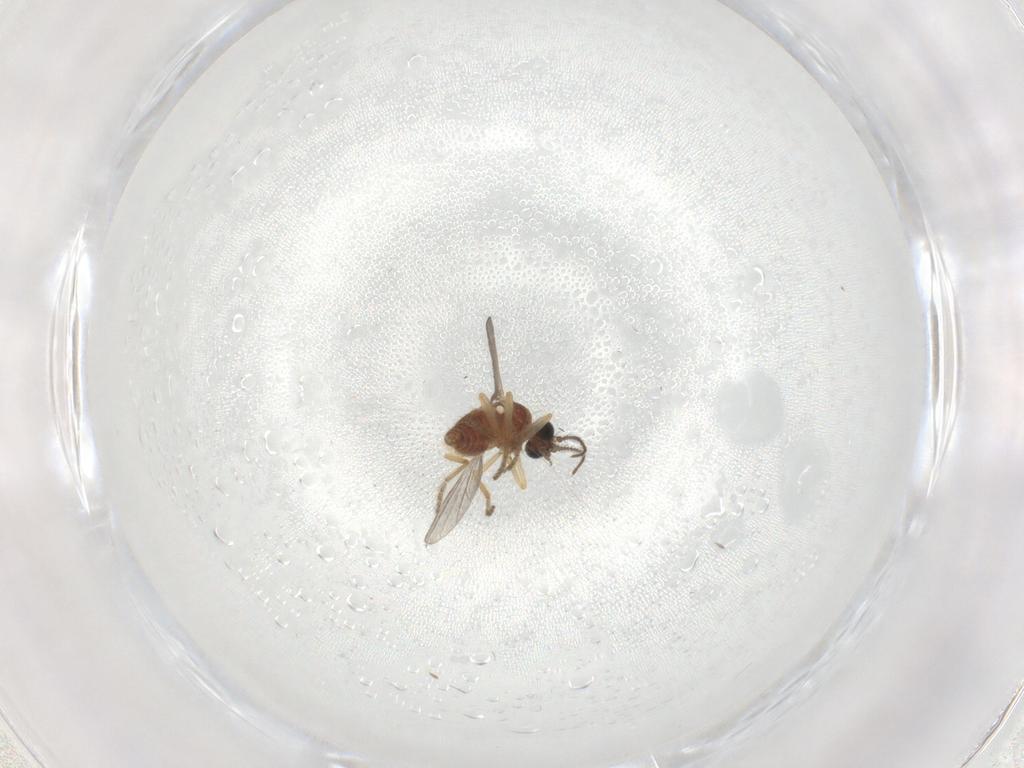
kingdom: Animalia
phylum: Arthropoda
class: Insecta
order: Diptera
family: Ceratopogonidae
